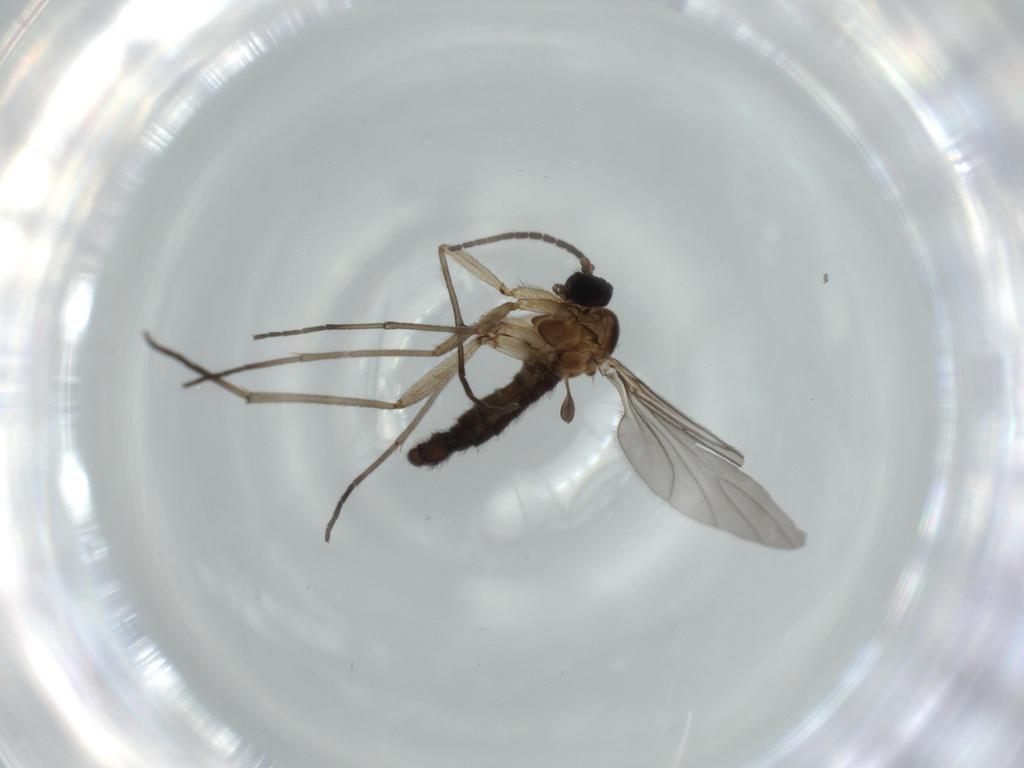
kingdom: Animalia
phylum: Arthropoda
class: Insecta
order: Diptera
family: Sciaridae
